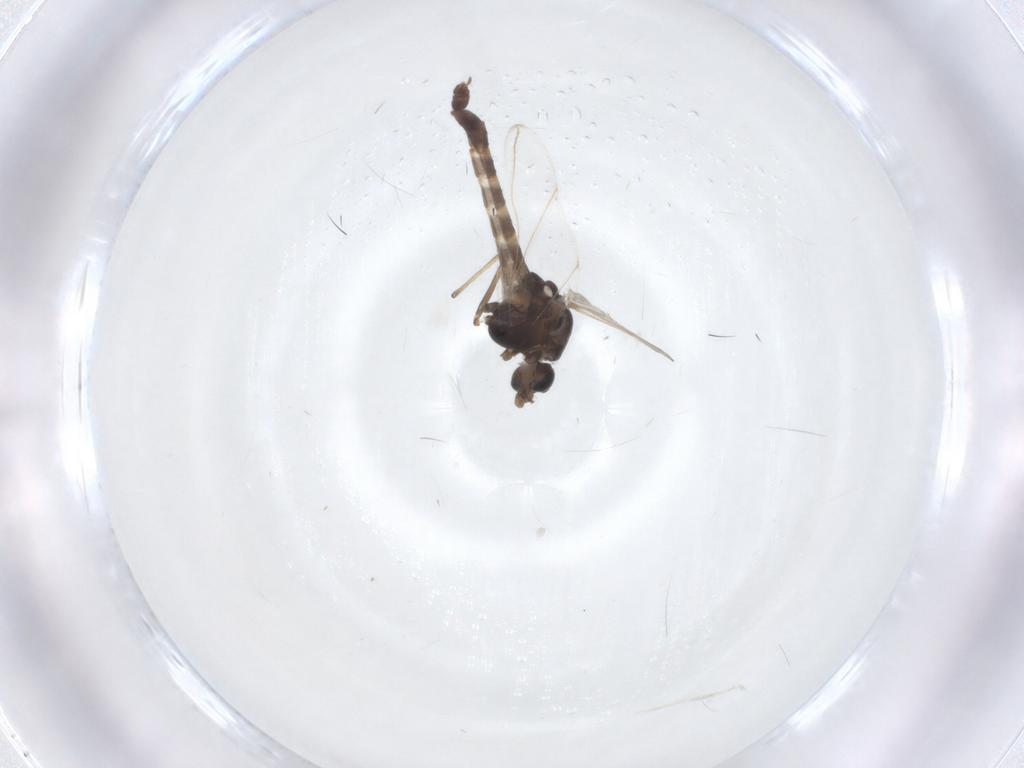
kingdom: Animalia
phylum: Arthropoda
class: Insecta
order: Diptera
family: Chironomidae
